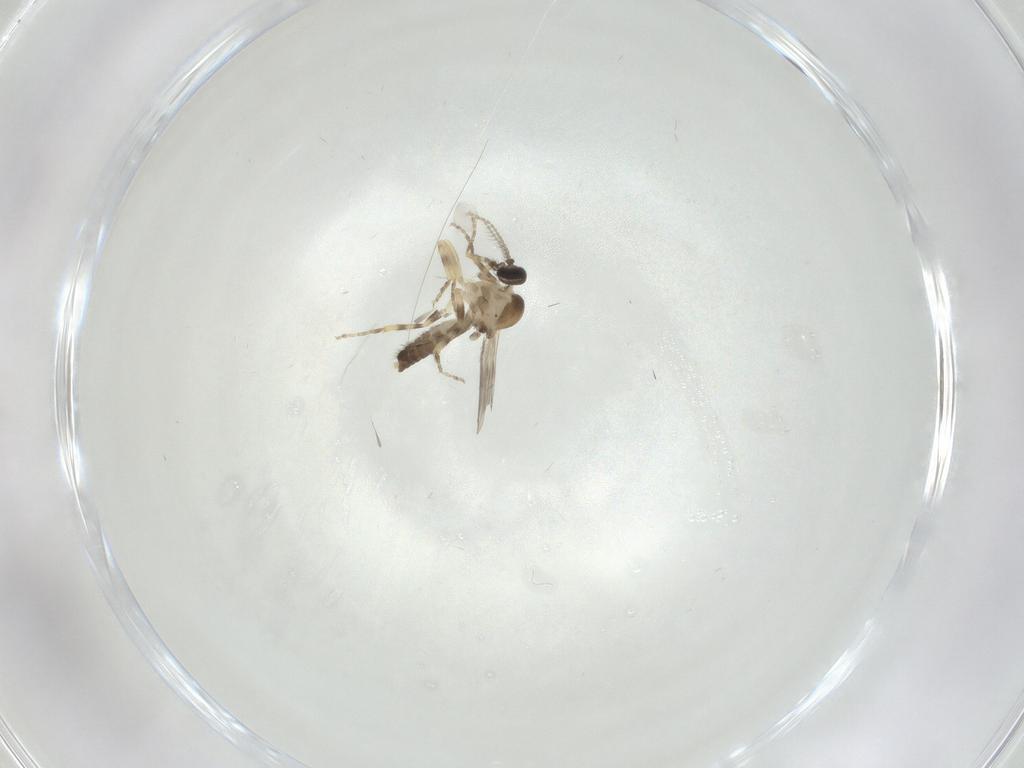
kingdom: Animalia
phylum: Arthropoda
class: Insecta
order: Diptera
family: Ceratopogonidae
